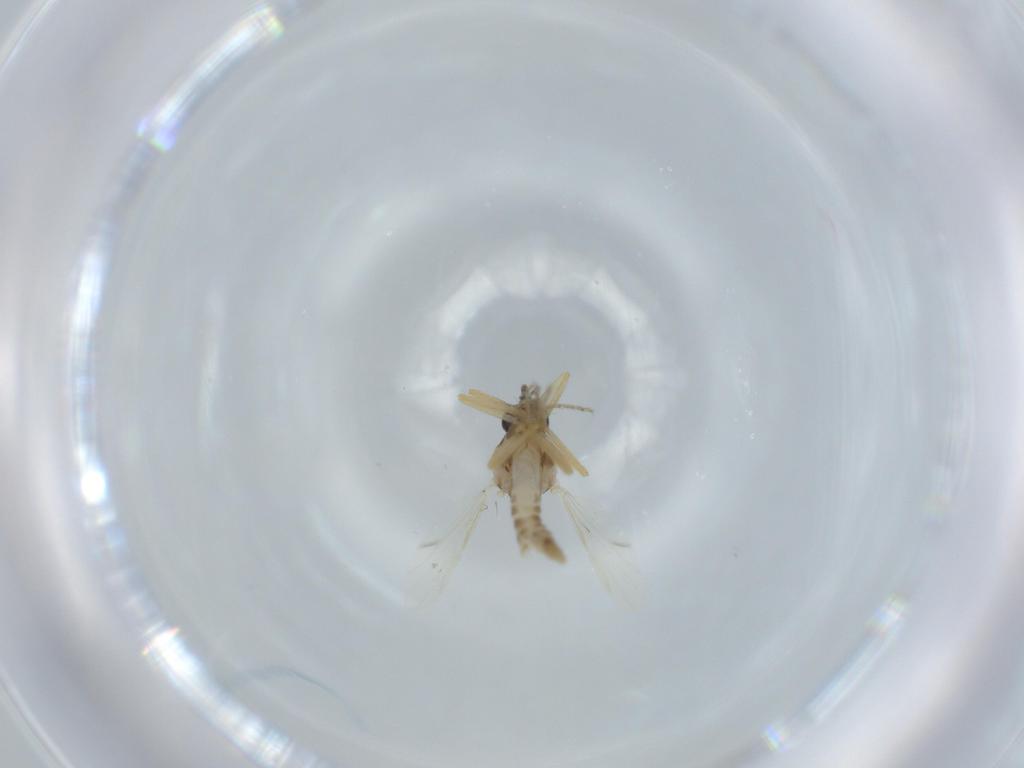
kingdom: Animalia
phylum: Arthropoda
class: Insecta
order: Diptera
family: Ceratopogonidae
